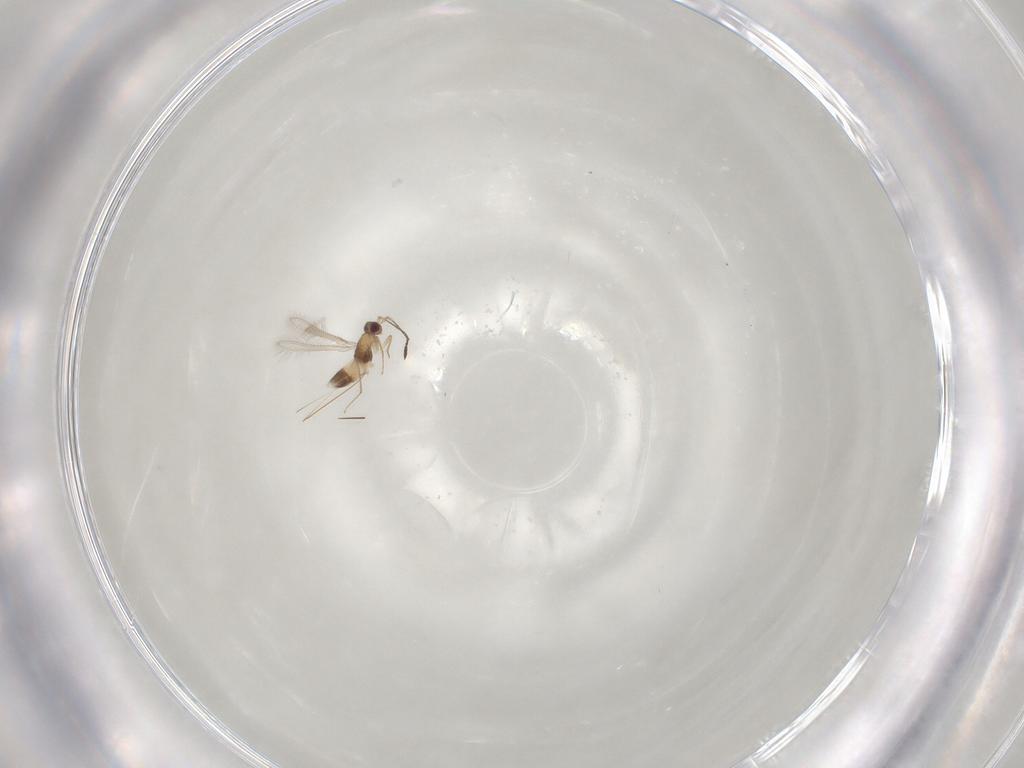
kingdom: Animalia
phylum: Arthropoda
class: Insecta
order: Hymenoptera
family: Mymaridae
